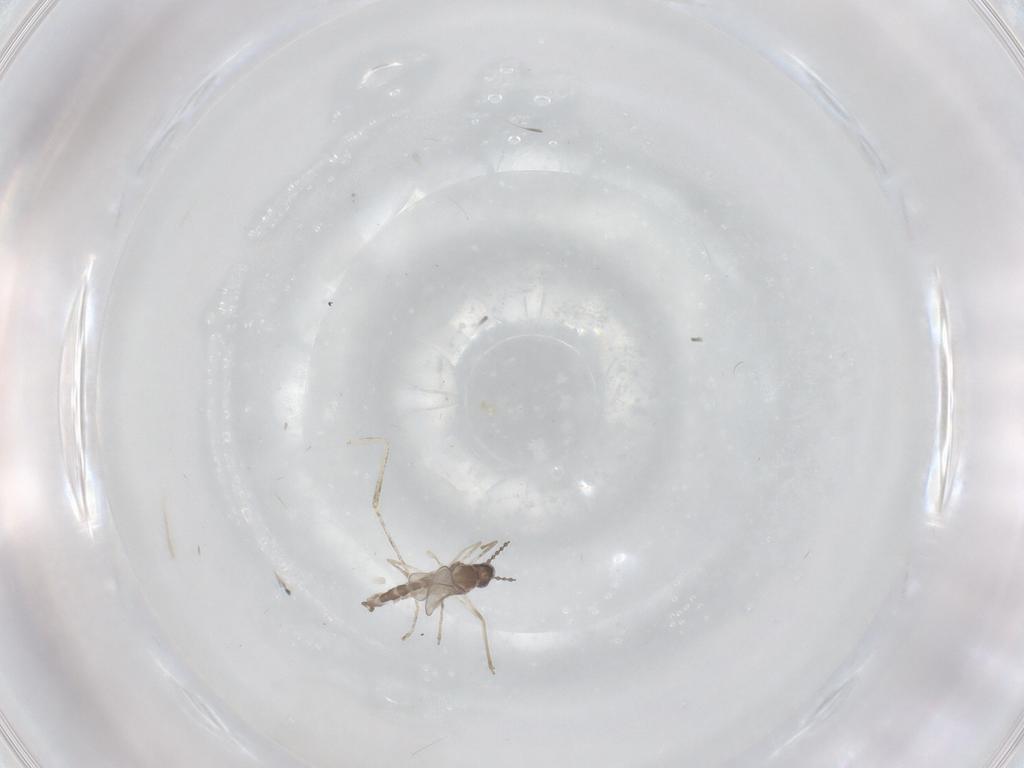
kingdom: Animalia
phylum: Arthropoda
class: Insecta
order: Diptera
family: Cecidomyiidae
